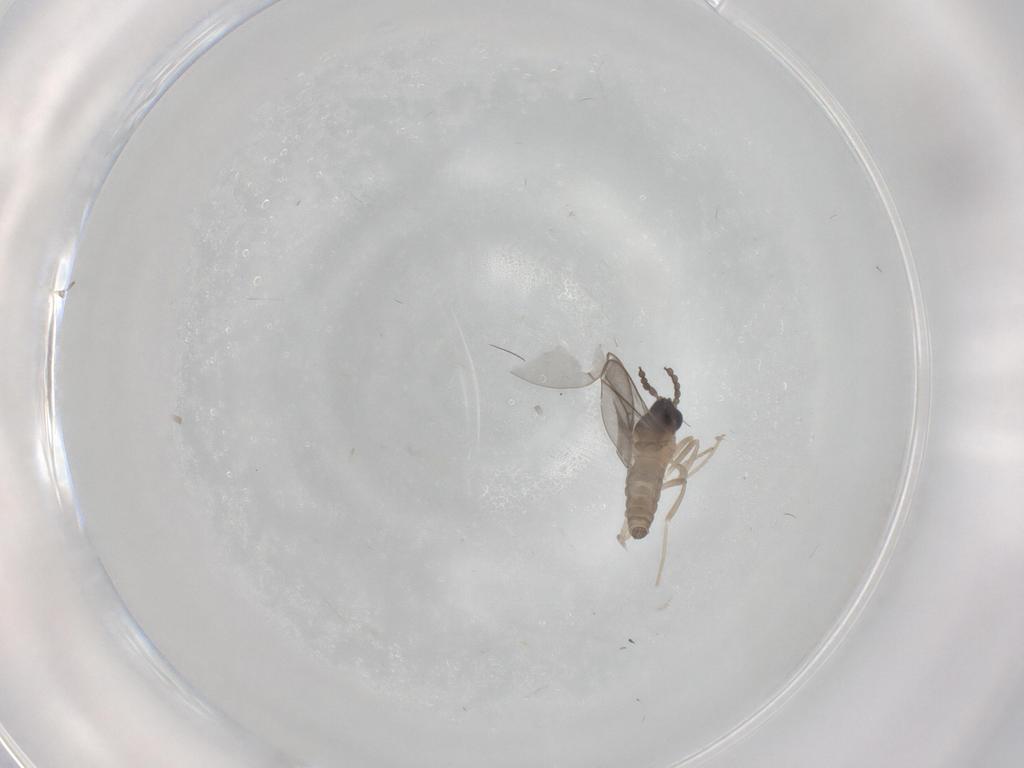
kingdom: Animalia
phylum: Arthropoda
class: Insecta
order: Diptera
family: Cecidomyiidae
